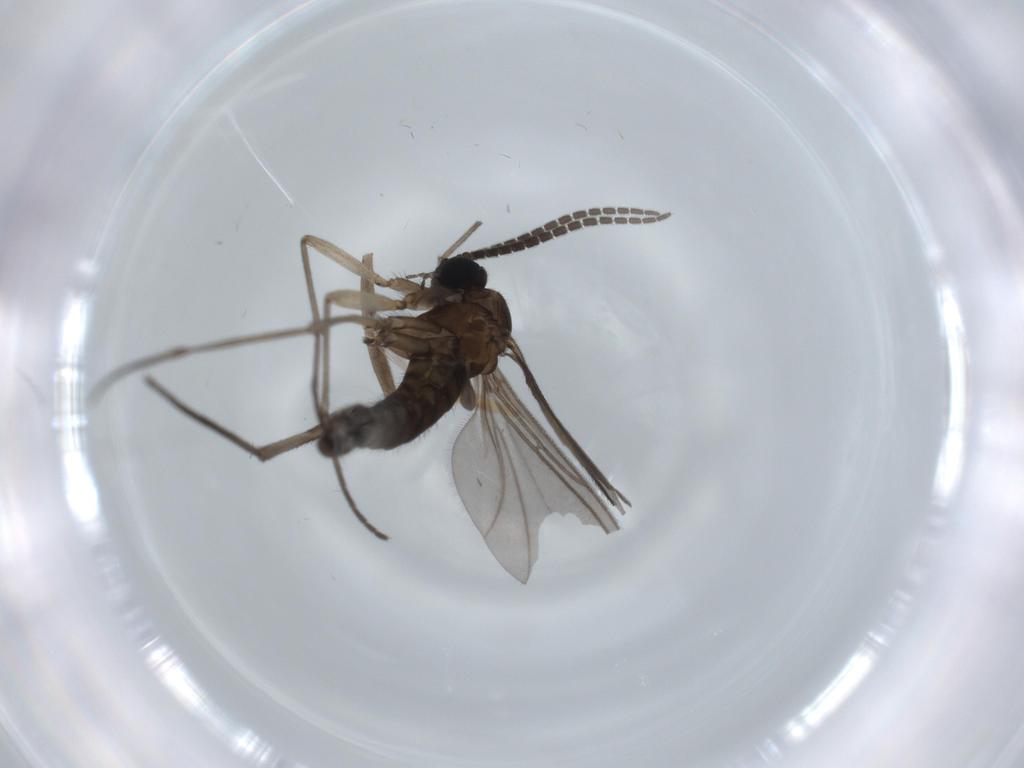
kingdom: Animalia
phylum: Arthropoda
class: Insecta
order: Diptera
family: Sciaridae
